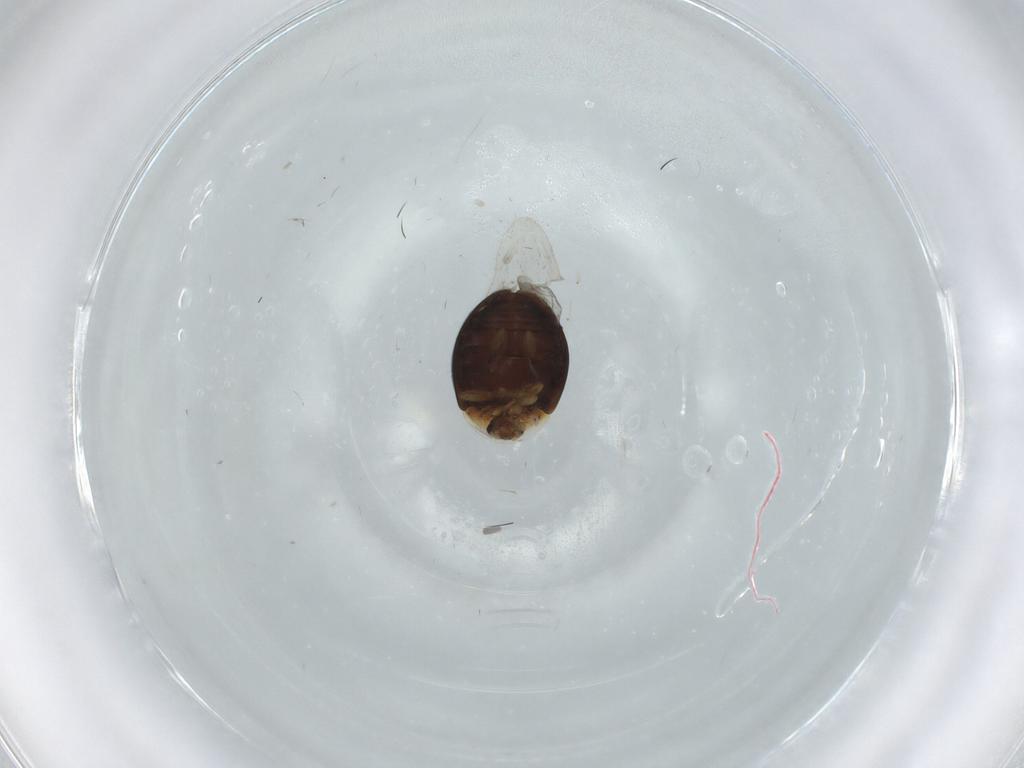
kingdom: Animalia
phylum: Arthropoda
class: Insecta
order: Coleoptera
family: Corylophidae
